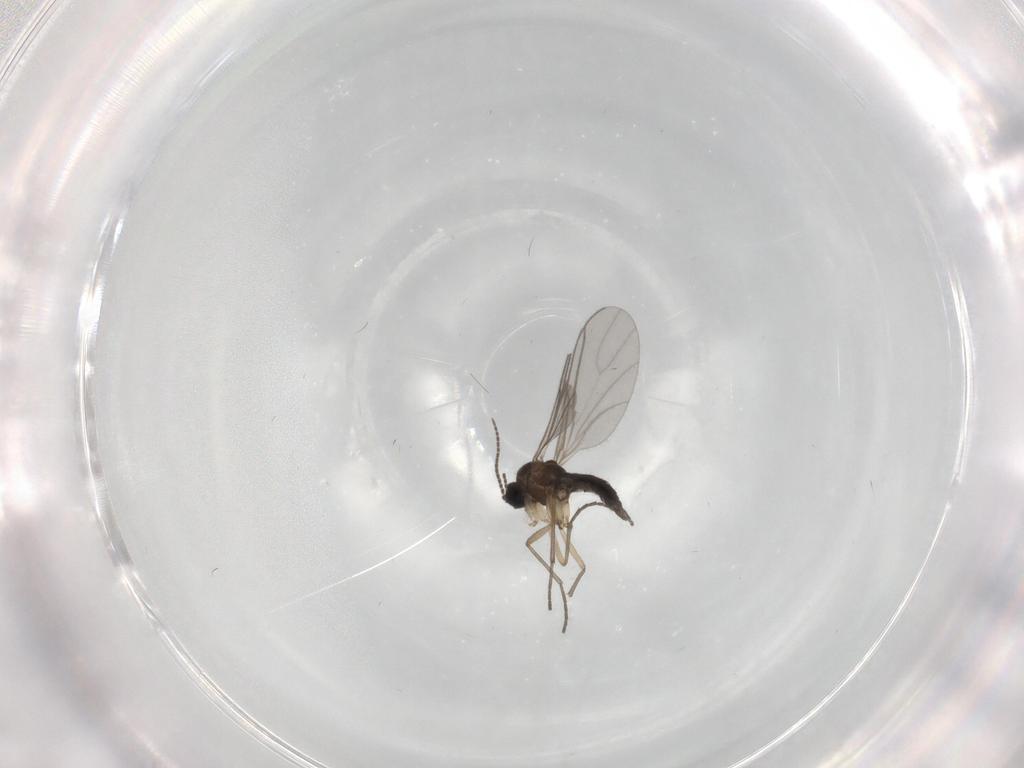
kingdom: Animalia
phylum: Arthropoda
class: Insecta
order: Diptera
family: Sciaridae
